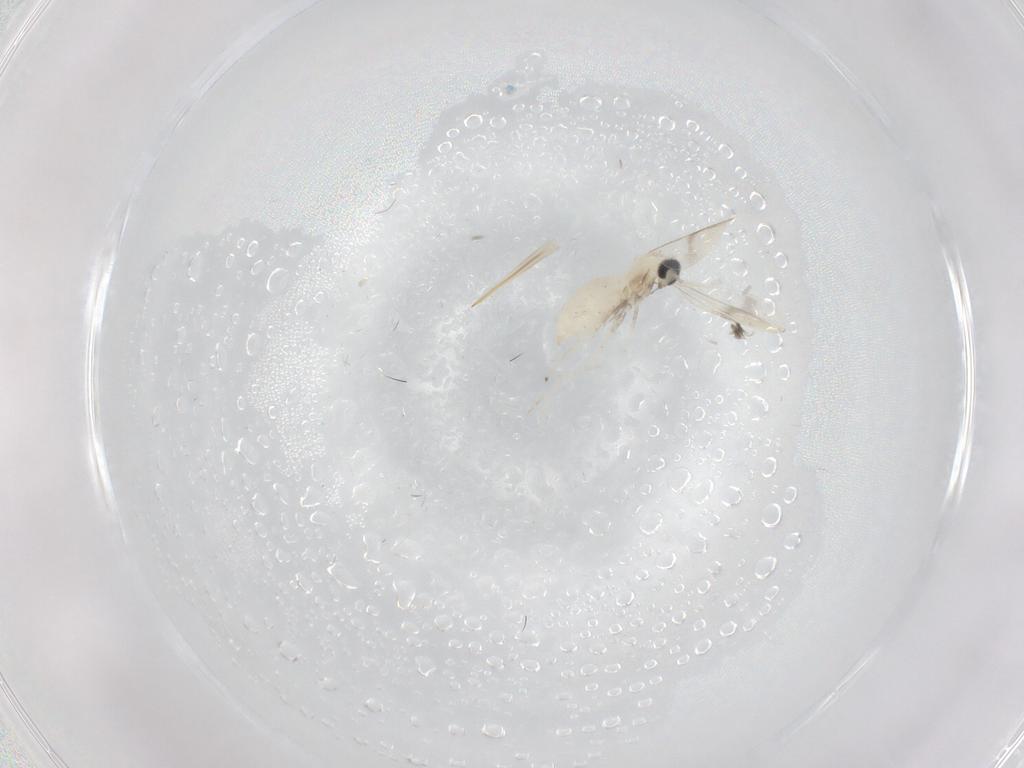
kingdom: Animalia
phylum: Arthropoda
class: Insecta
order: Diptera
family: Cecidomyiidae
